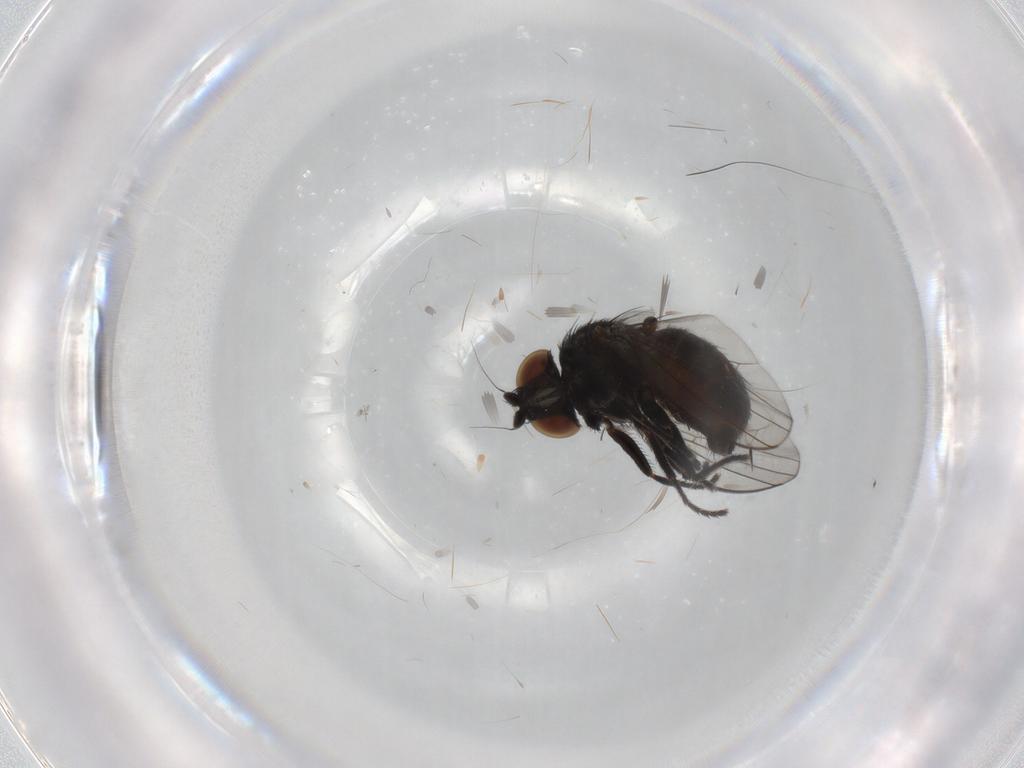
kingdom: Animalia
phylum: Arthropoda
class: Insecta
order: Diptera
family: Milichiidae
